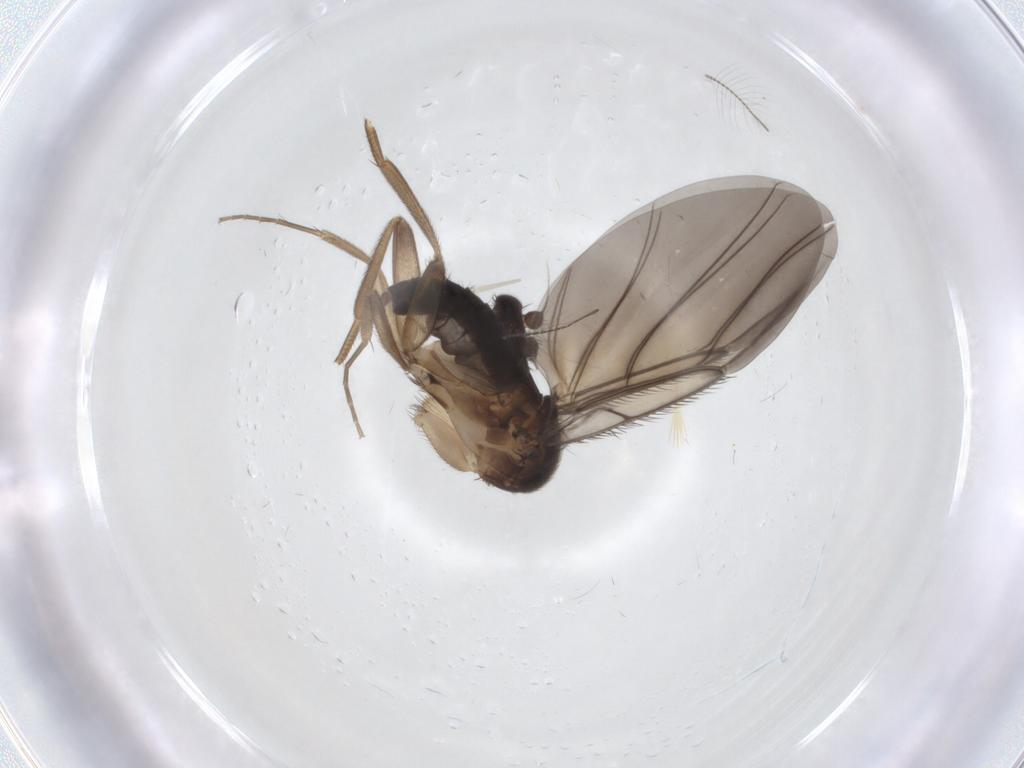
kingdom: Animalia
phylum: Arthropoda
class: Insecta
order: Diptera
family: Phoridae
